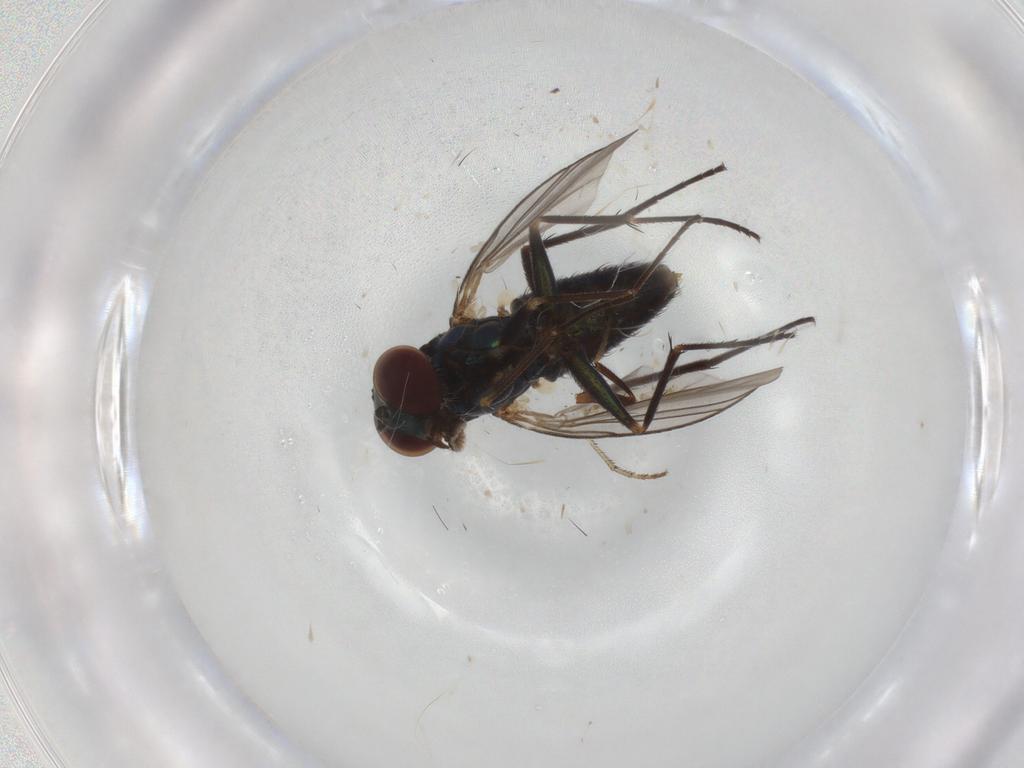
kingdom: Animalia
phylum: Arthropoda
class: Insecta
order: Diptera
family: Dolichopodidae
